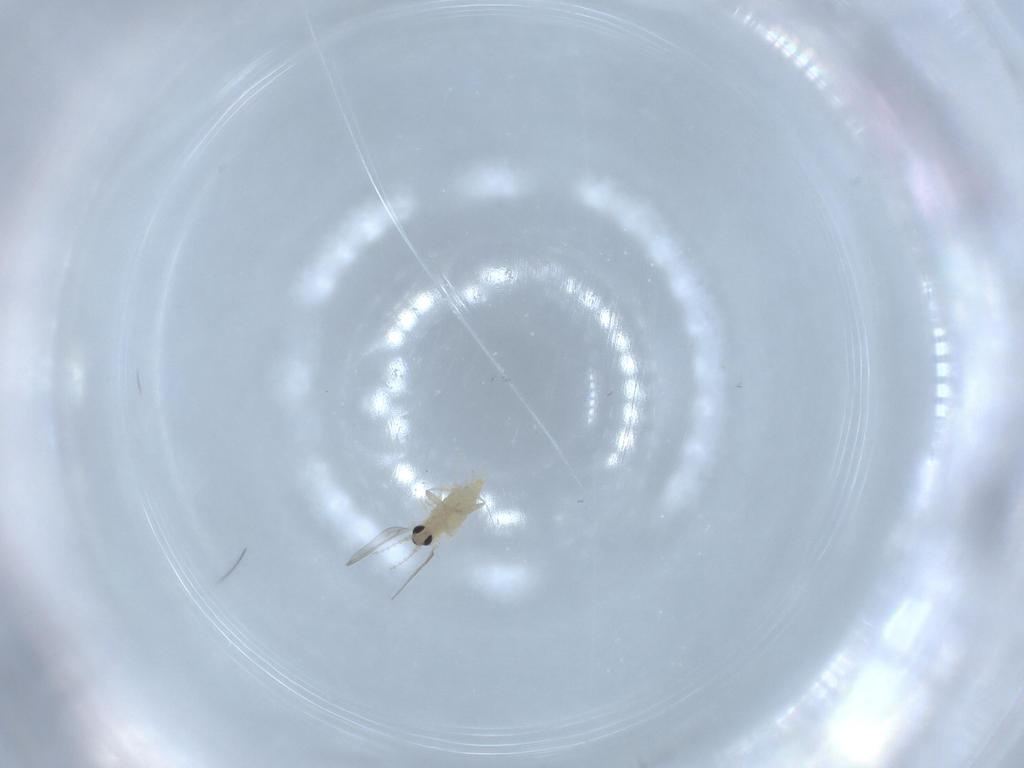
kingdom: Animalia
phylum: Arthropoda
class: Insecta
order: Diptera
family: Cecidomyiidae
